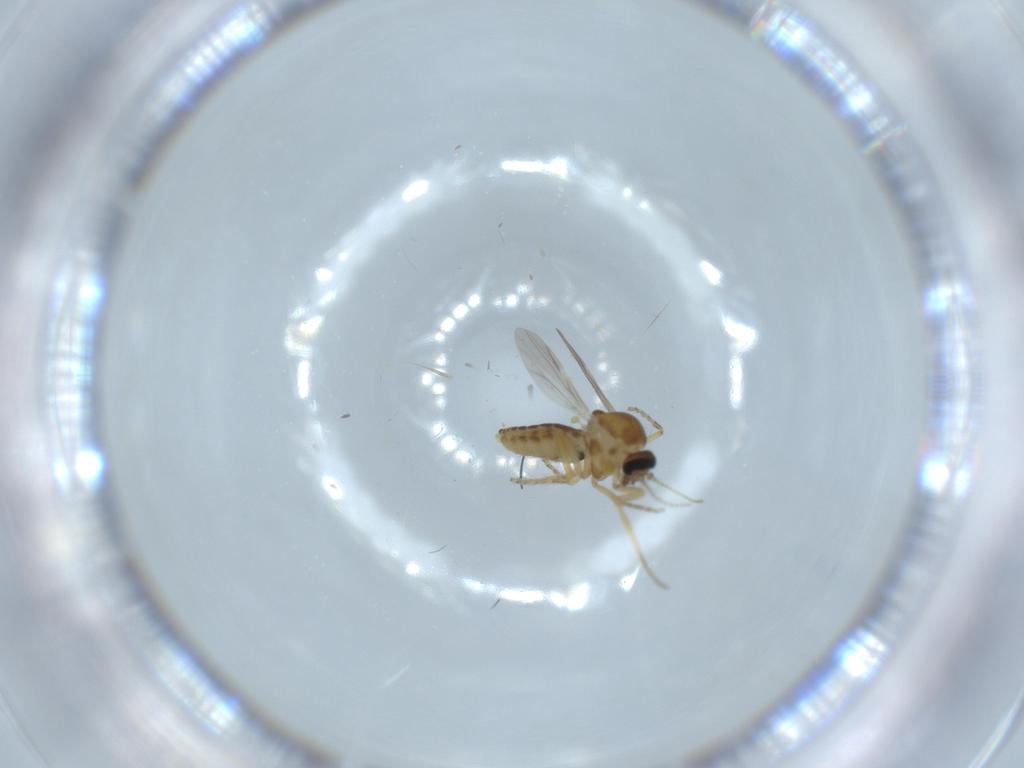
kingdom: Animalia
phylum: Arthropoda
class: Insecta
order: Diptera
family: Ceratopogonidae
